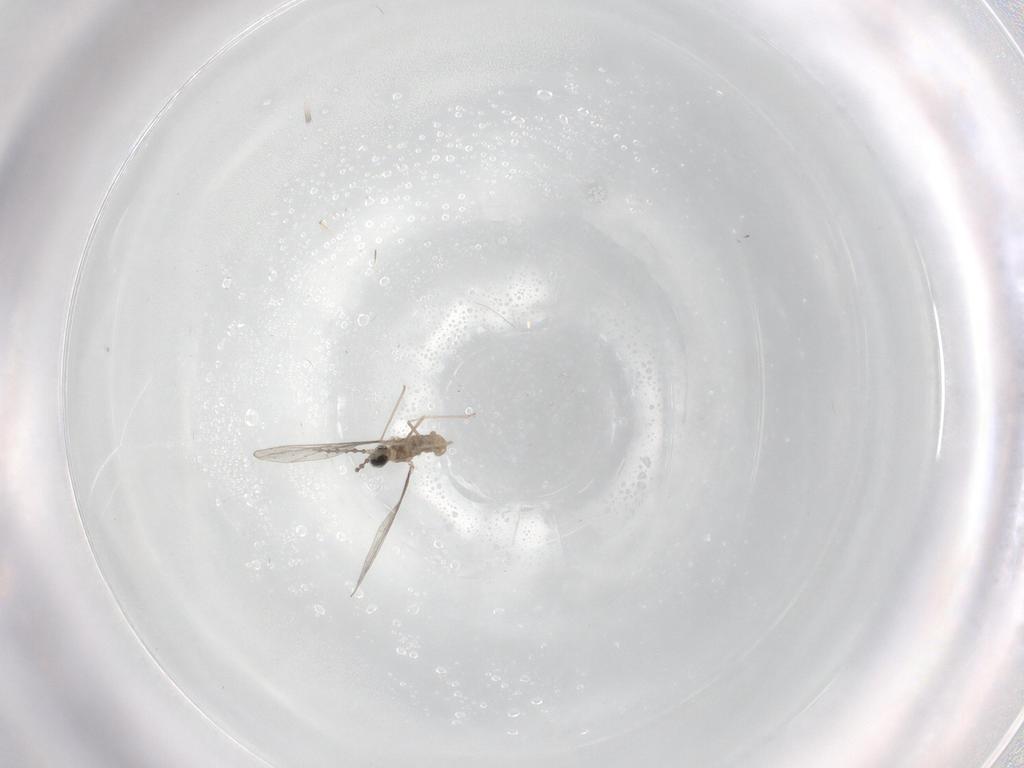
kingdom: Animalia
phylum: Arthropoda
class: Insecta
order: Diptera
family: Cecidomyiidae
